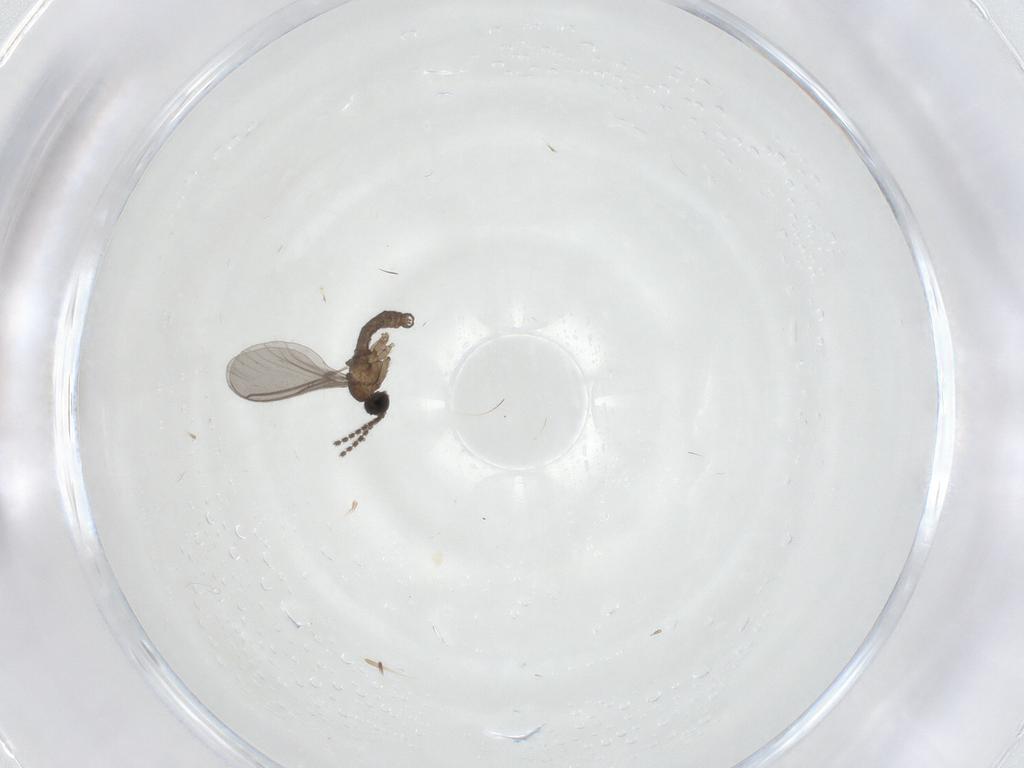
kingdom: Animalia
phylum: Arthropoda
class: Insecta
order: Diptera
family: Sciaridae
